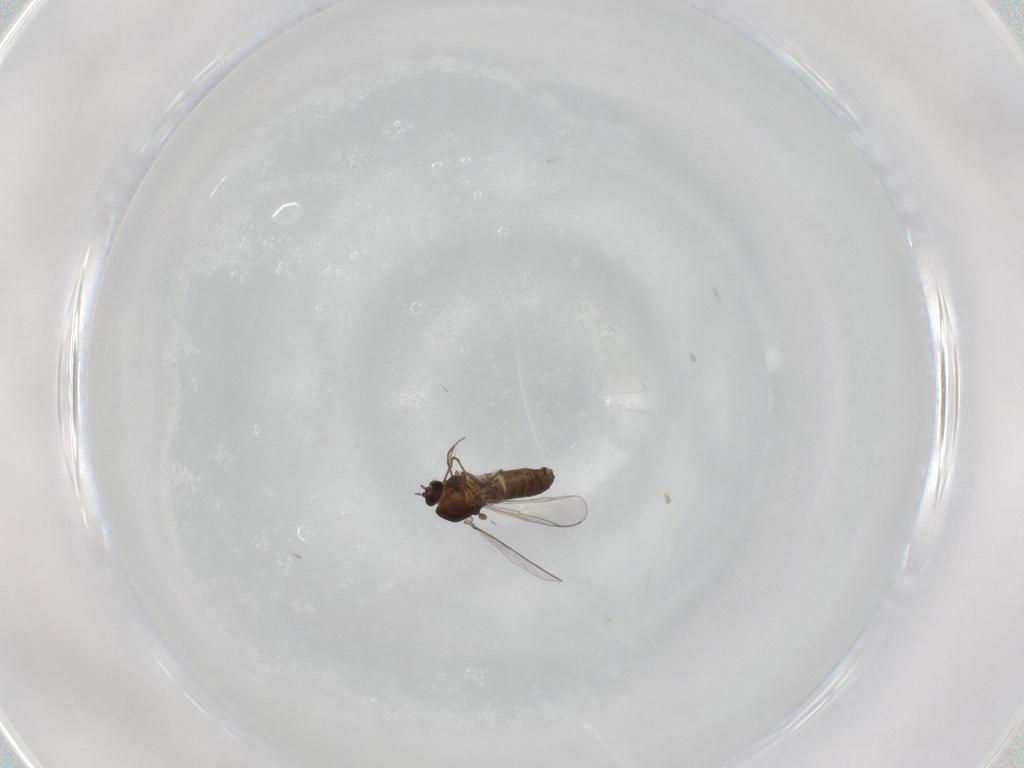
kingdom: Animalia
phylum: Arthropoda
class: Insecta
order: Diptera
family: Chironomidae
